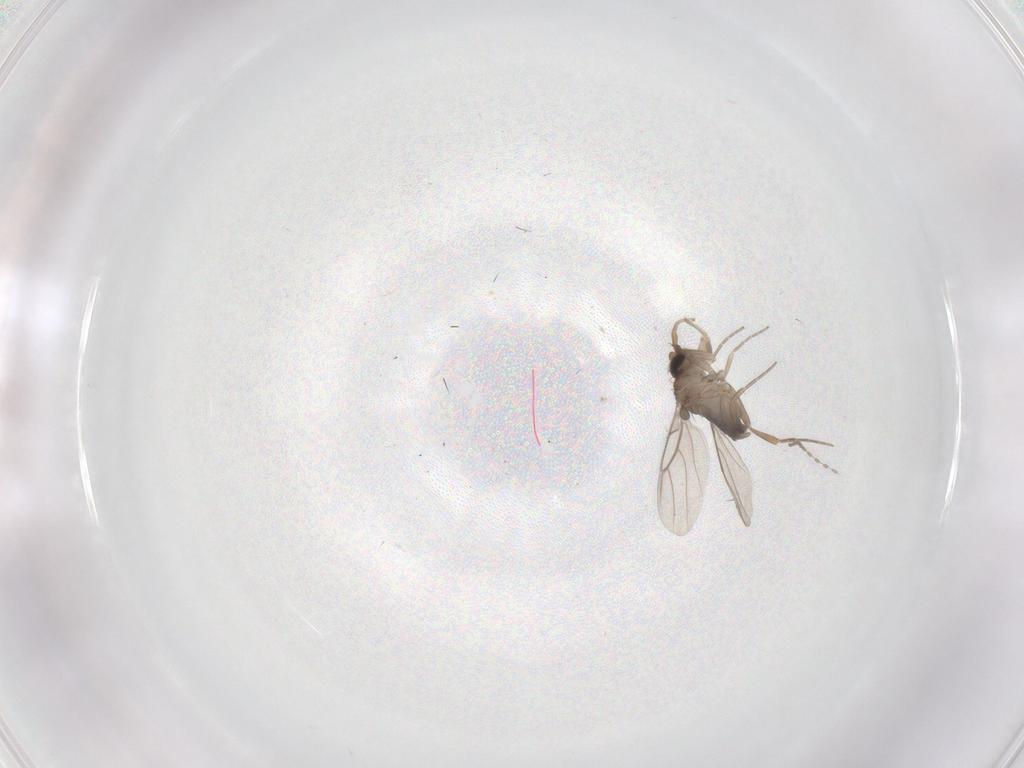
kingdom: Animalia
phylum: Arthropoda
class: Insecta
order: Diptera
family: Phoridae
